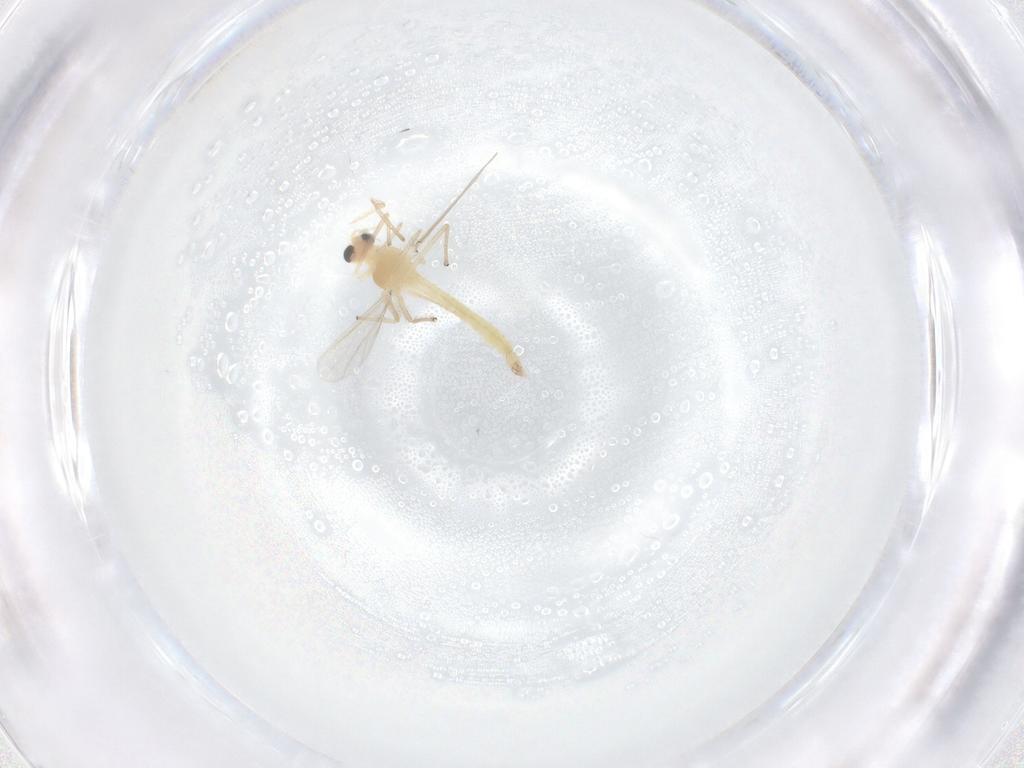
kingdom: Animalia
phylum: Arthropoda
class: Insecta
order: Diptera
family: Chironomidae
